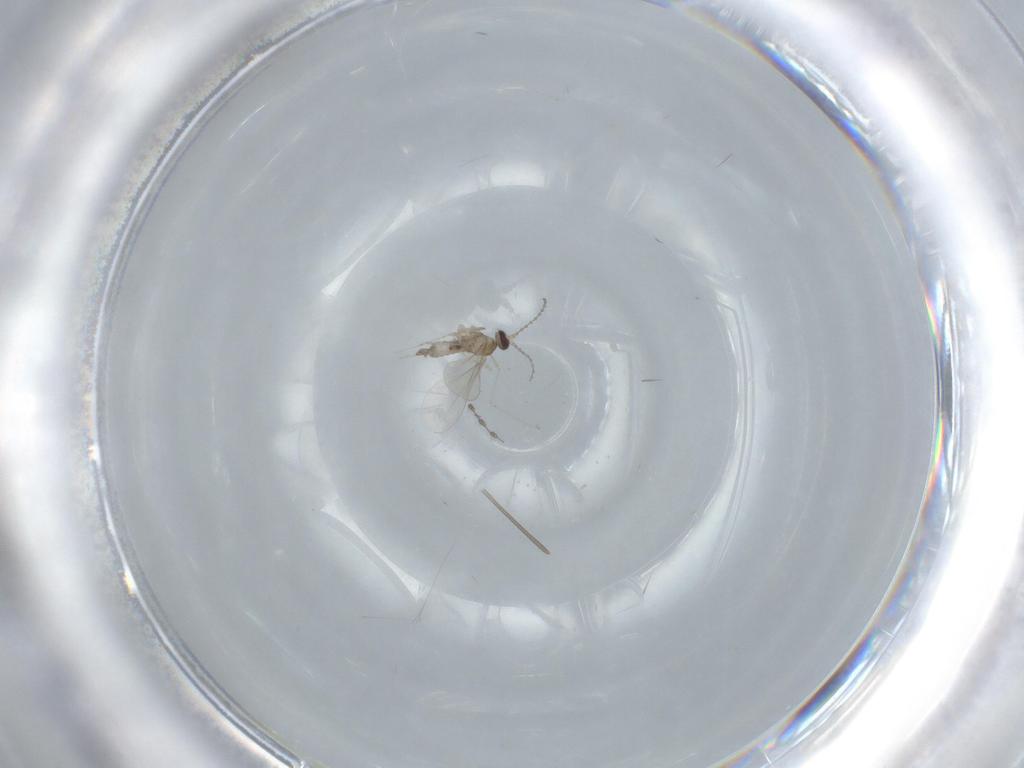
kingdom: Animalia
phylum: Arthropoda
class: Insecta
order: Diptera
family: Cecidomyiidae
